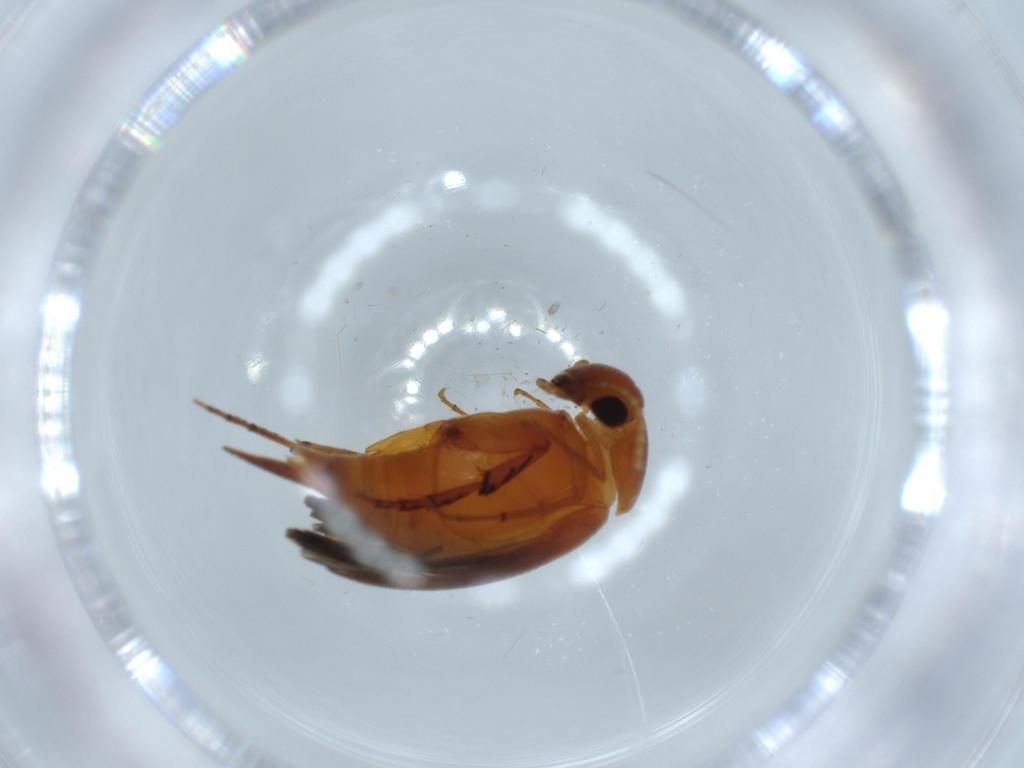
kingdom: Animalia
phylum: Arthropoda
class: Insecta
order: Coleoptera
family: Mordellidae
